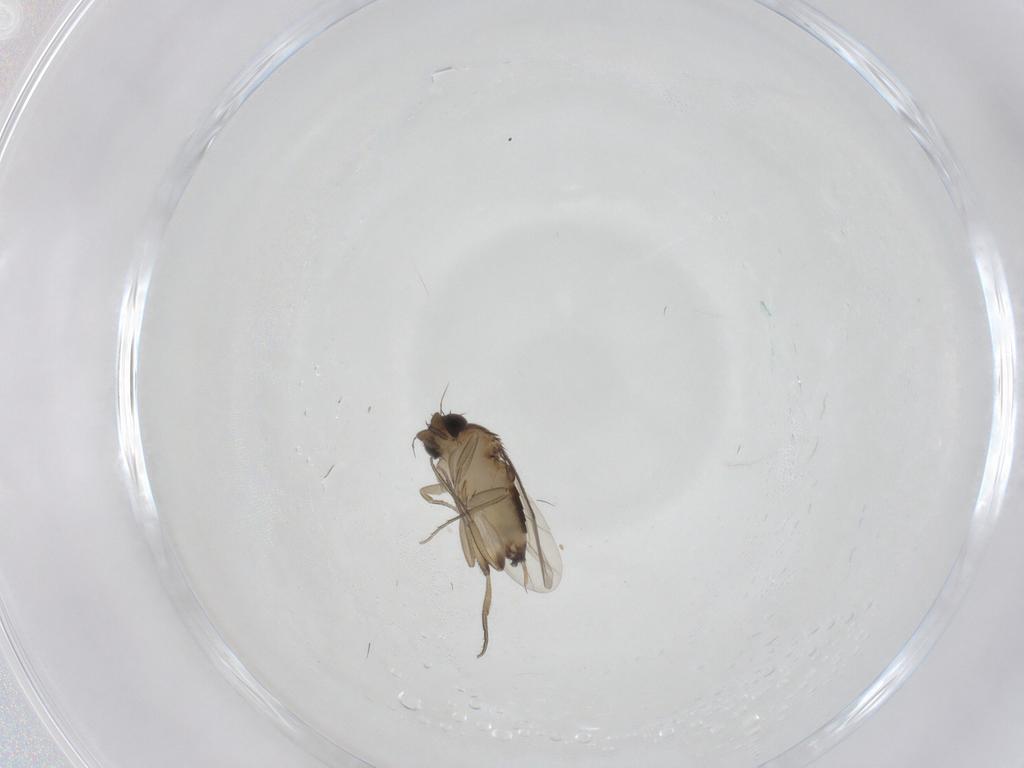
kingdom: Animalia
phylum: Arthropoda
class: Insecta
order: Diptera
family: Phoridae
